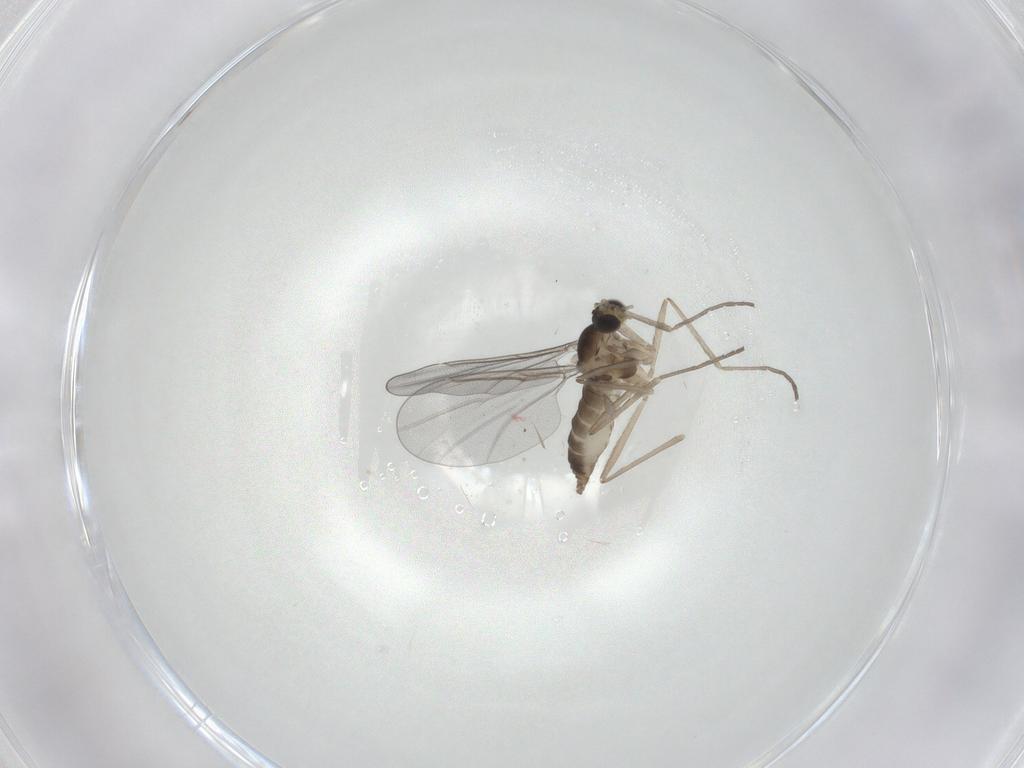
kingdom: Animalia
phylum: Arthropoda
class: Insecta
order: Diptera
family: Cecidomyiidae
